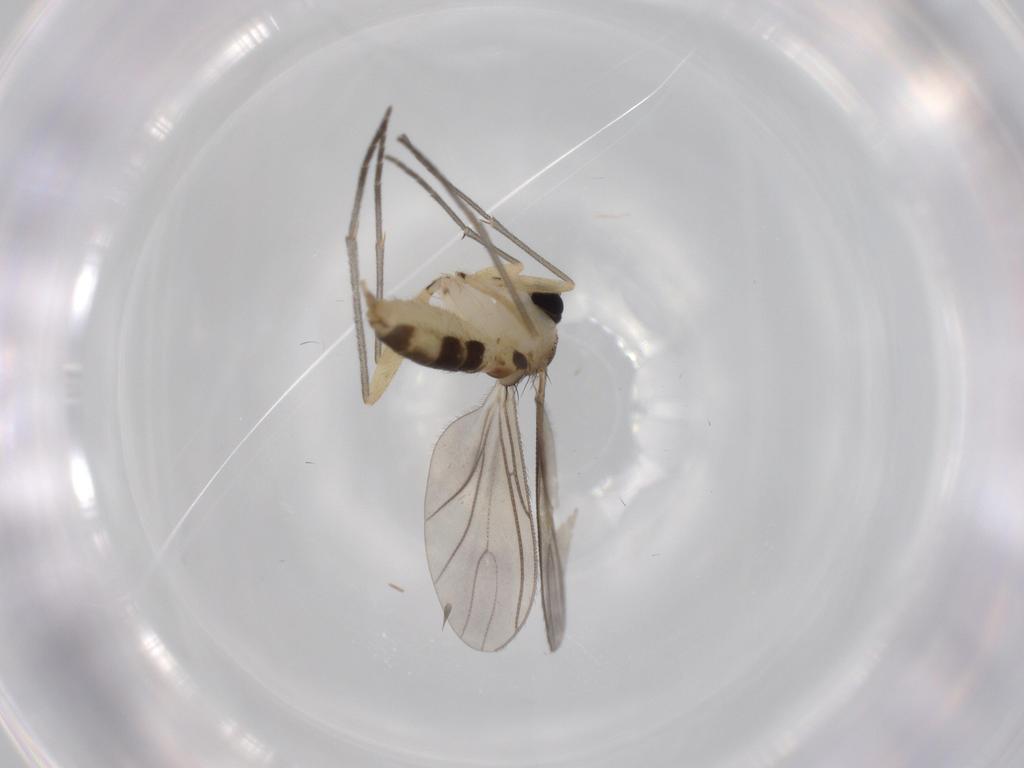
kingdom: Animalia
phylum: Arthropoda
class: Insecta
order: Diptera
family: Sciaridae
